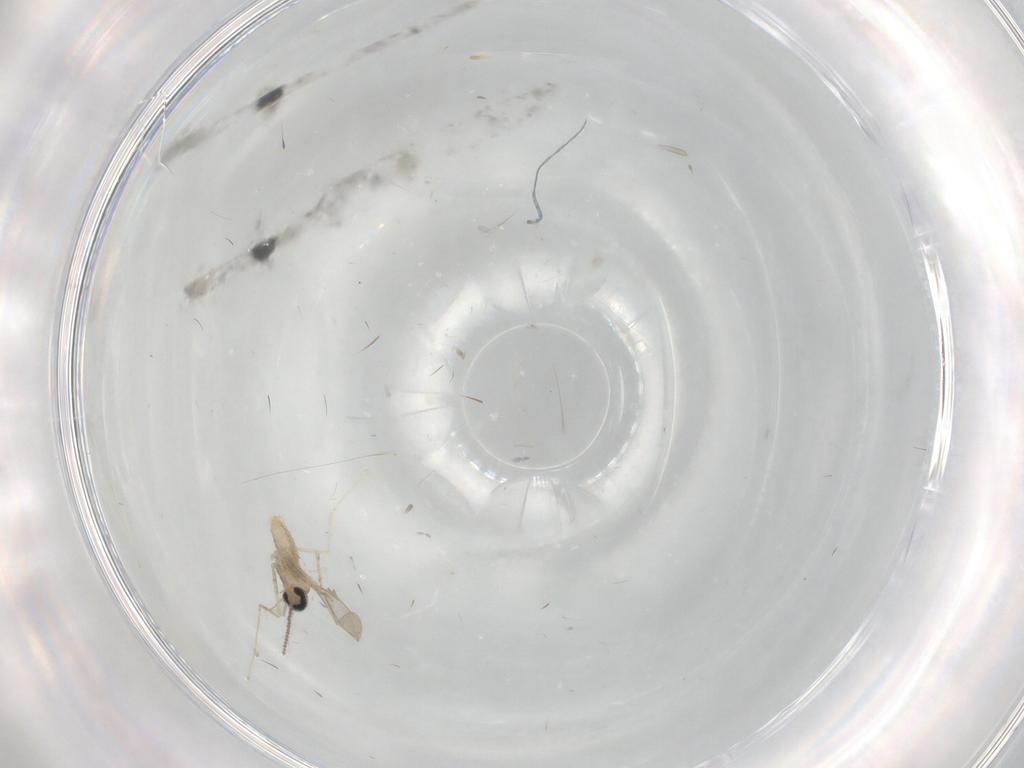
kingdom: Animalia
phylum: Arthropoda
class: Insecta
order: Diptera
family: Cecidomyiidae
